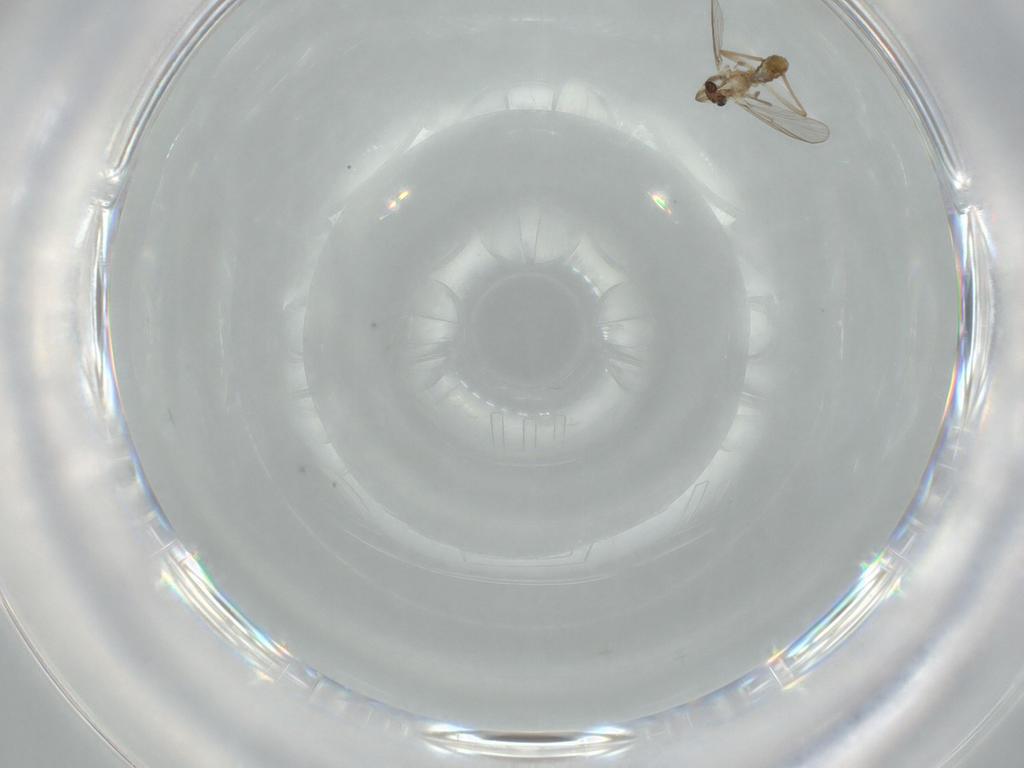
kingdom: Animalia
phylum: Arthropoda
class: Insecta
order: Diptera
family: Chironomidae
